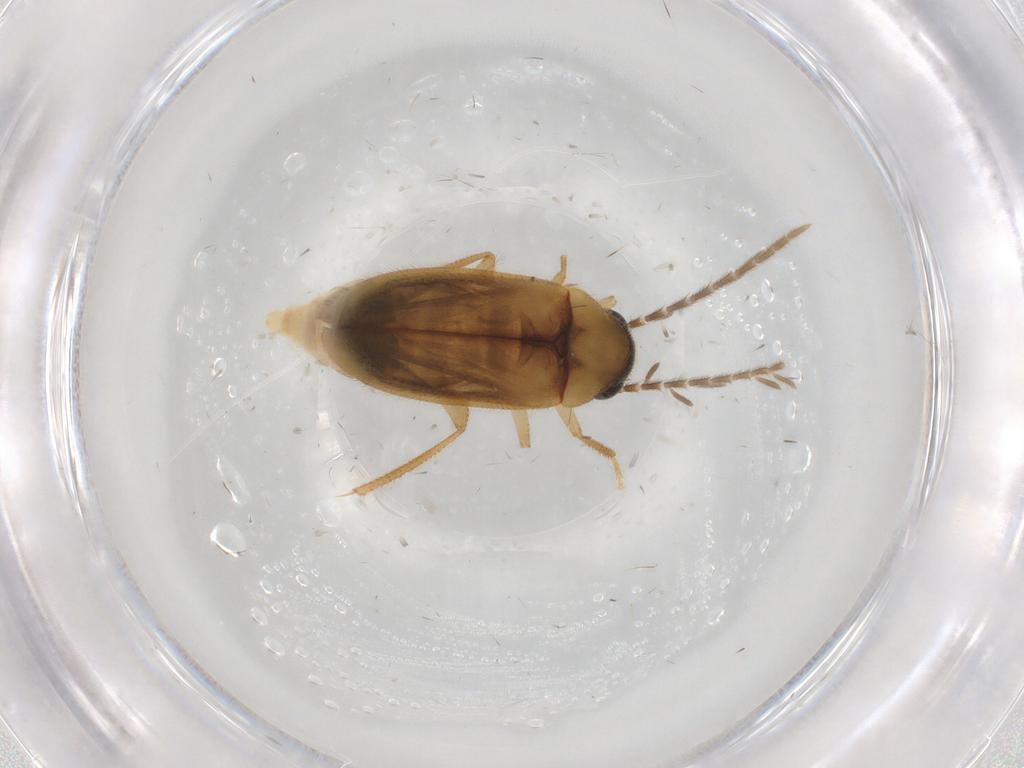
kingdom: Animalia
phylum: Arthropoda
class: Insecta
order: Coleoptera
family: Ptilodactylidae
